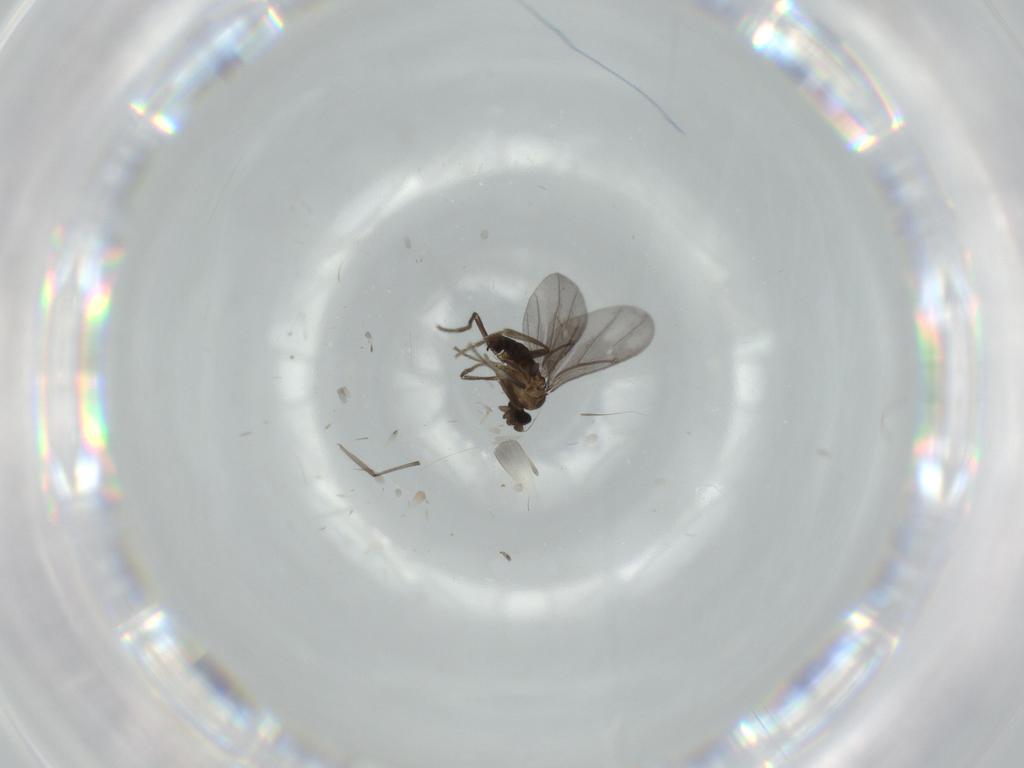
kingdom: Animalia
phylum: Arthropoda
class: Insecta
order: Diptera
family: Phoridae
